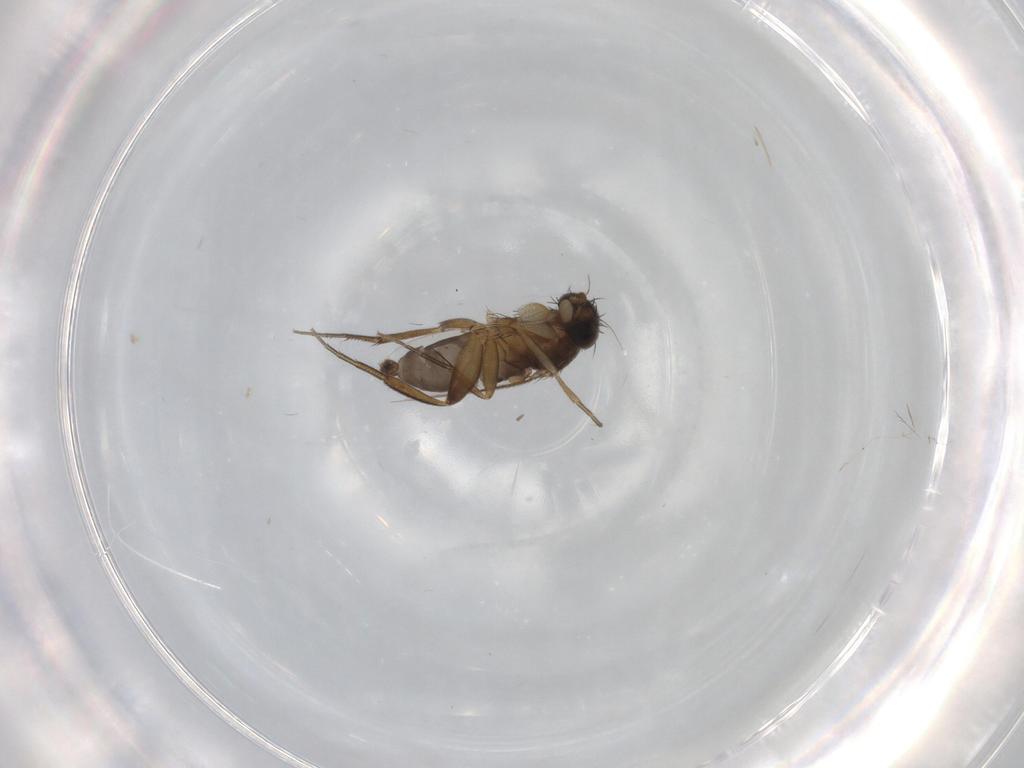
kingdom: Animalia
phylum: Arthropoda
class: Insecta
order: Diptera
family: Phoridae
